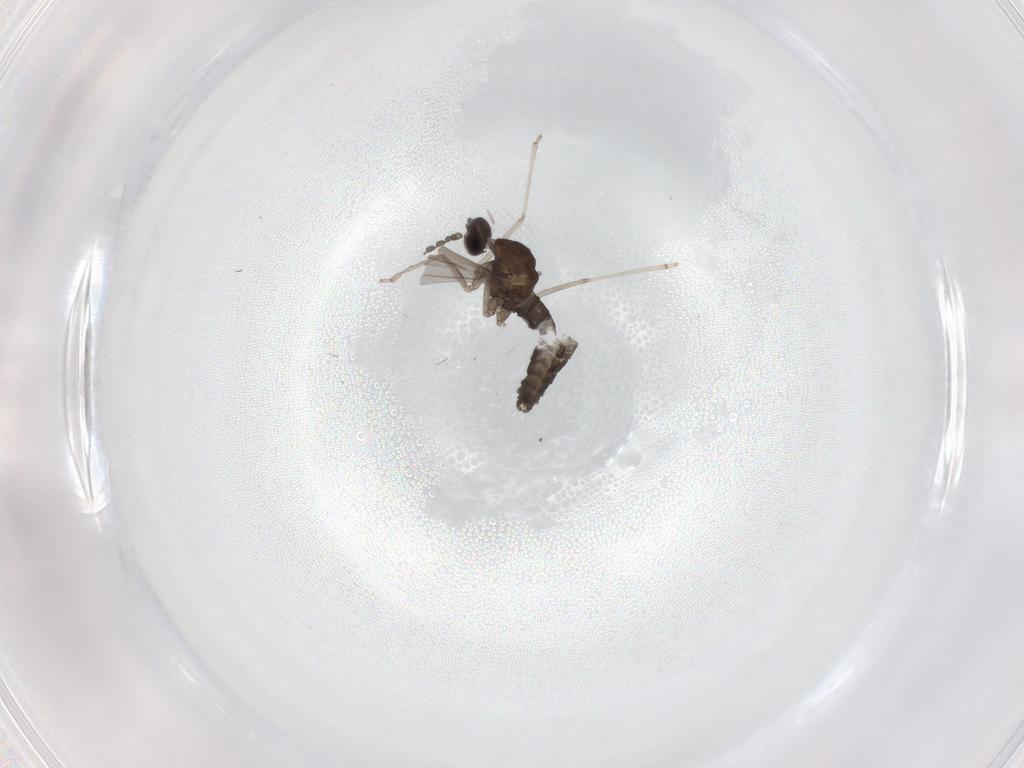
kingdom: Animalia
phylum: Arthropoda
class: Insecta
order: Diptera
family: Cecidomyiidae
